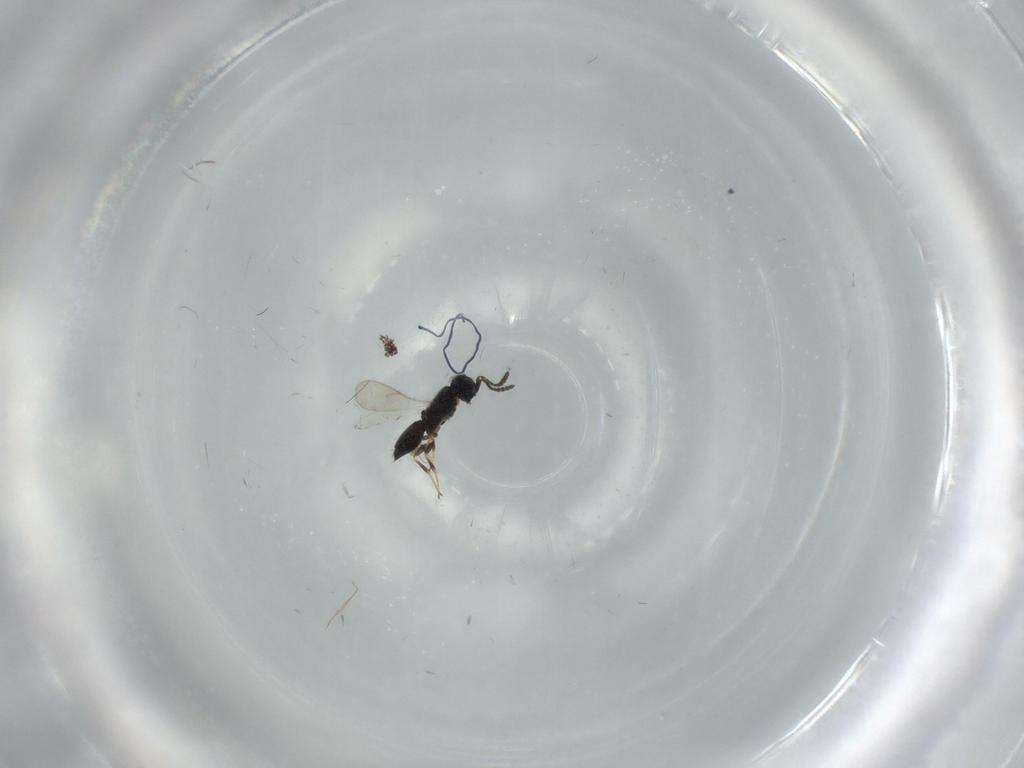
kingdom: Animalia
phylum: Arthropoda
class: Insecta
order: Hymenoptera
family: Scelionidae
